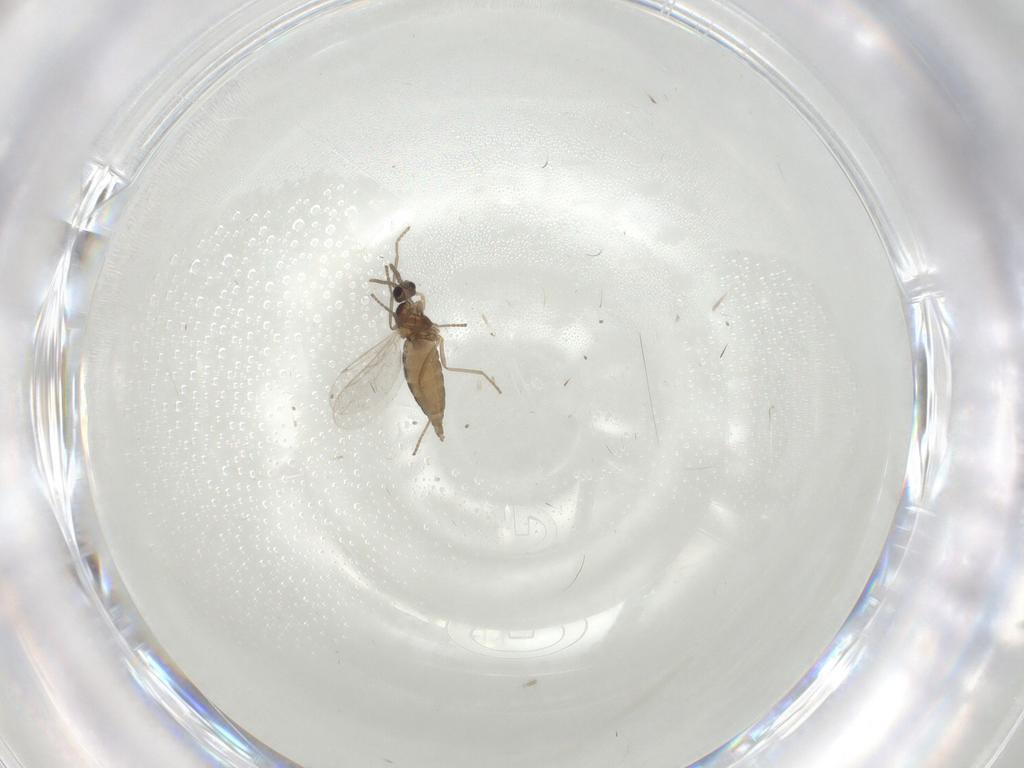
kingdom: Animalia
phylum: Arthropoda
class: Insecta
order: Diptera
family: Cecidomyiidae
